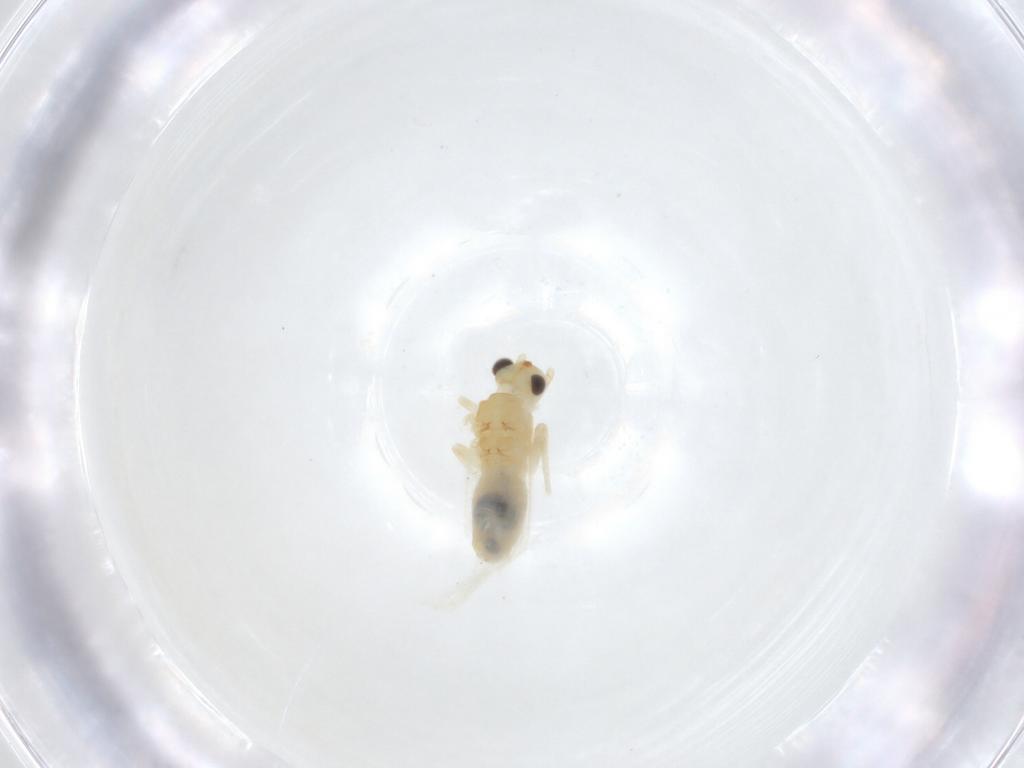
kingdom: Animalia
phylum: Arthropoda
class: Insecta
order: Psocodea
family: Caeciliusidae
